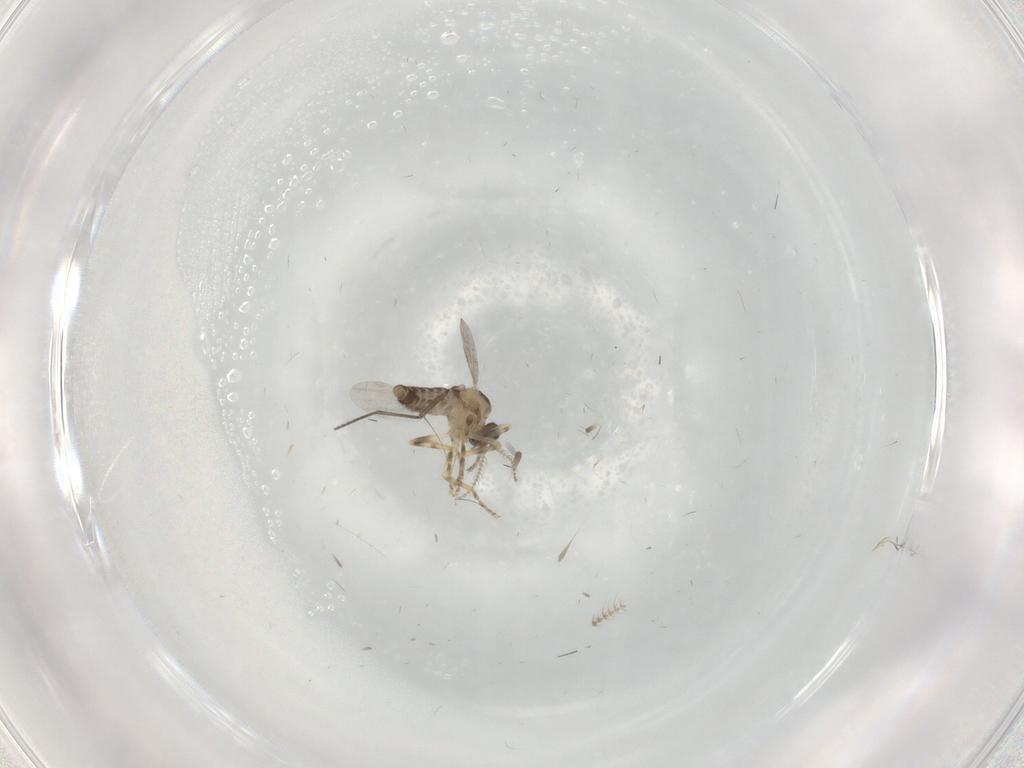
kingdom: Animalia
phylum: Arthropoda
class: Insecta
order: Diptera
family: Ceratopogonidae
